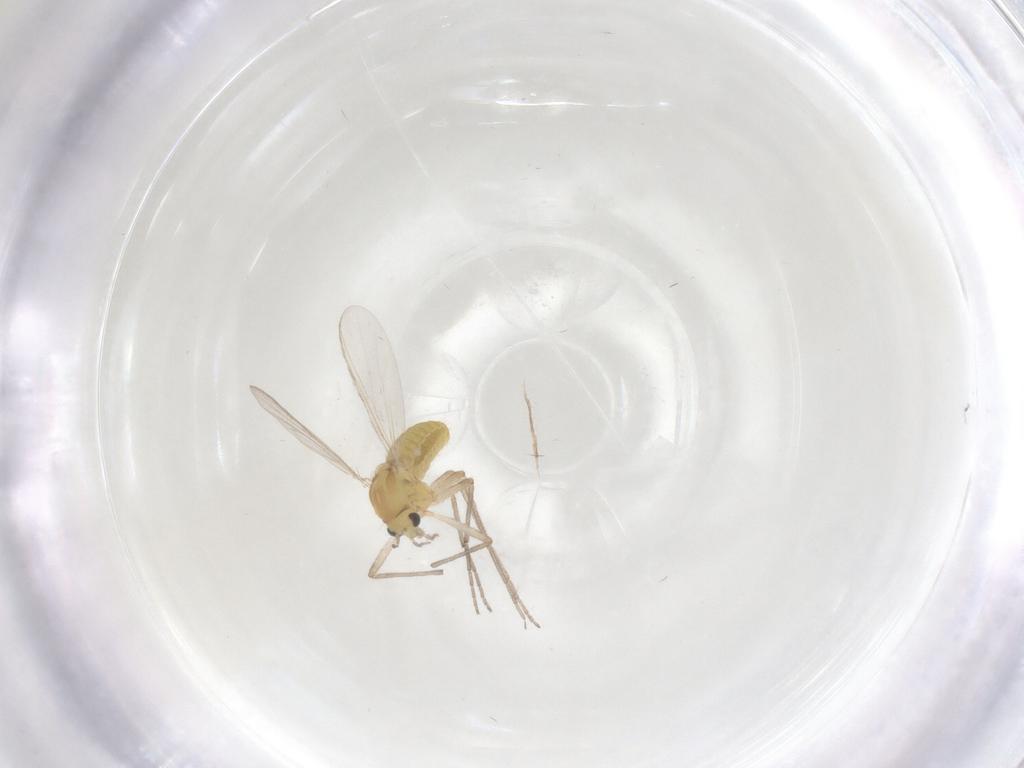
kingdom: Animalia
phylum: Arthropoda
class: Insecta
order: Diptera
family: Chironomidae
